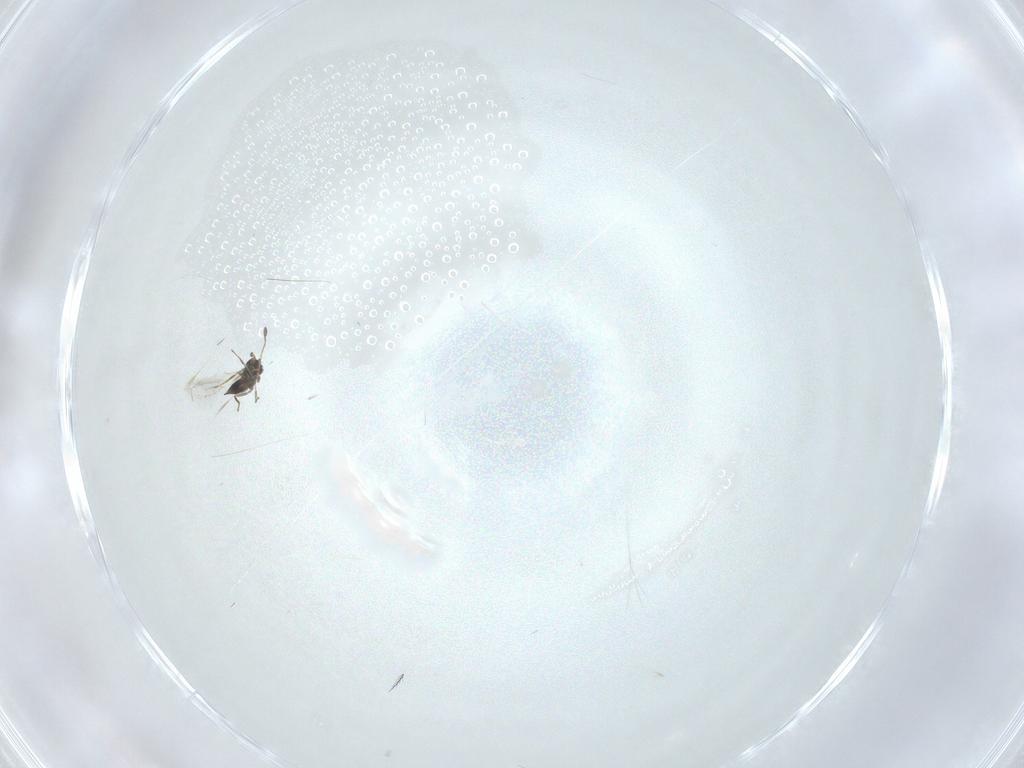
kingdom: Animalia
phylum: Arthropoda
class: Insecta
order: Hymenoptera
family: Mymaridae
